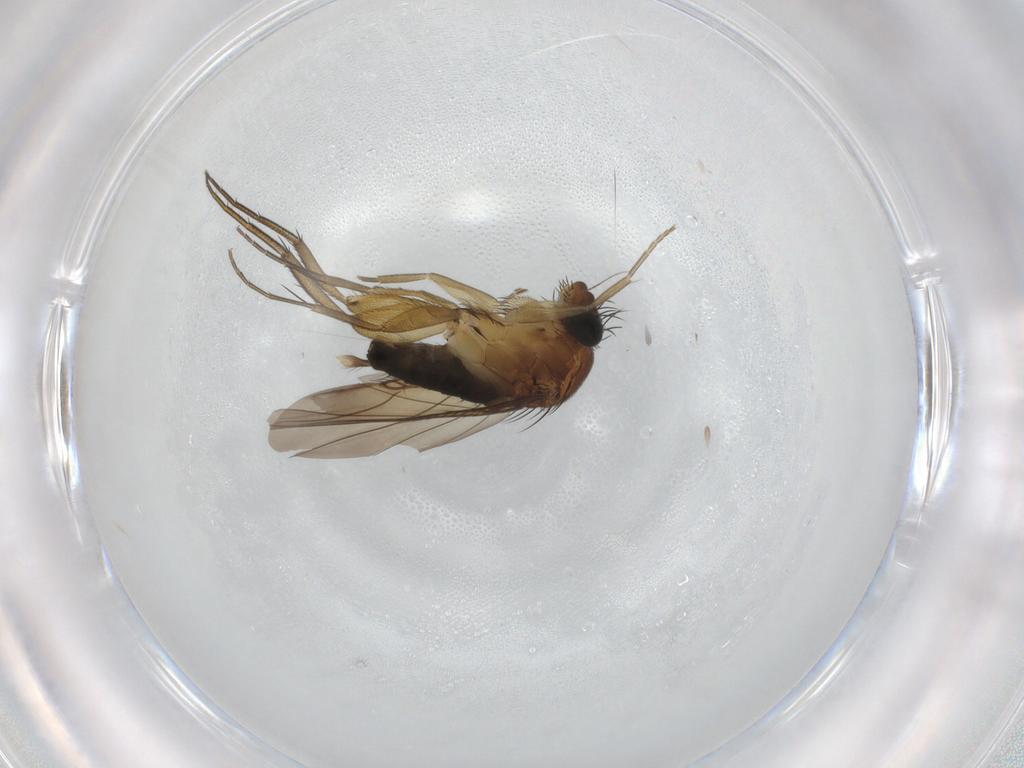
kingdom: Animalia
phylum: Arthropoda
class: Insecta
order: Diptera
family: Phoridae
